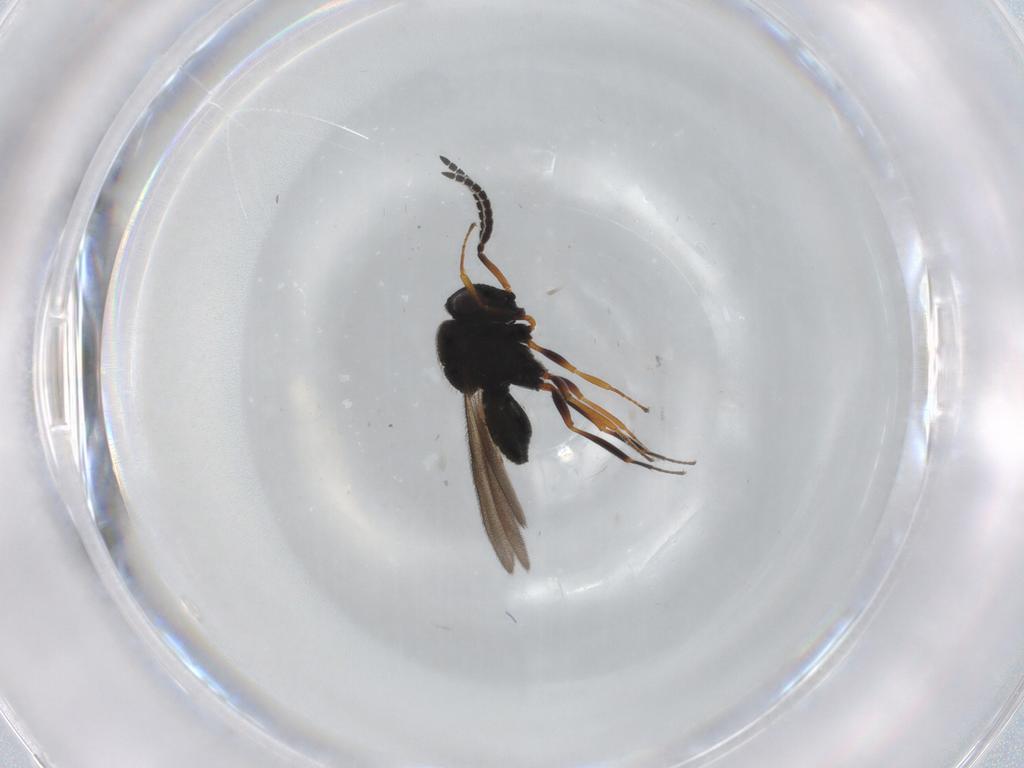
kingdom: Animalia
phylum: Arthropoda
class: Insecta
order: Hymenoptera
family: Scelionidae
